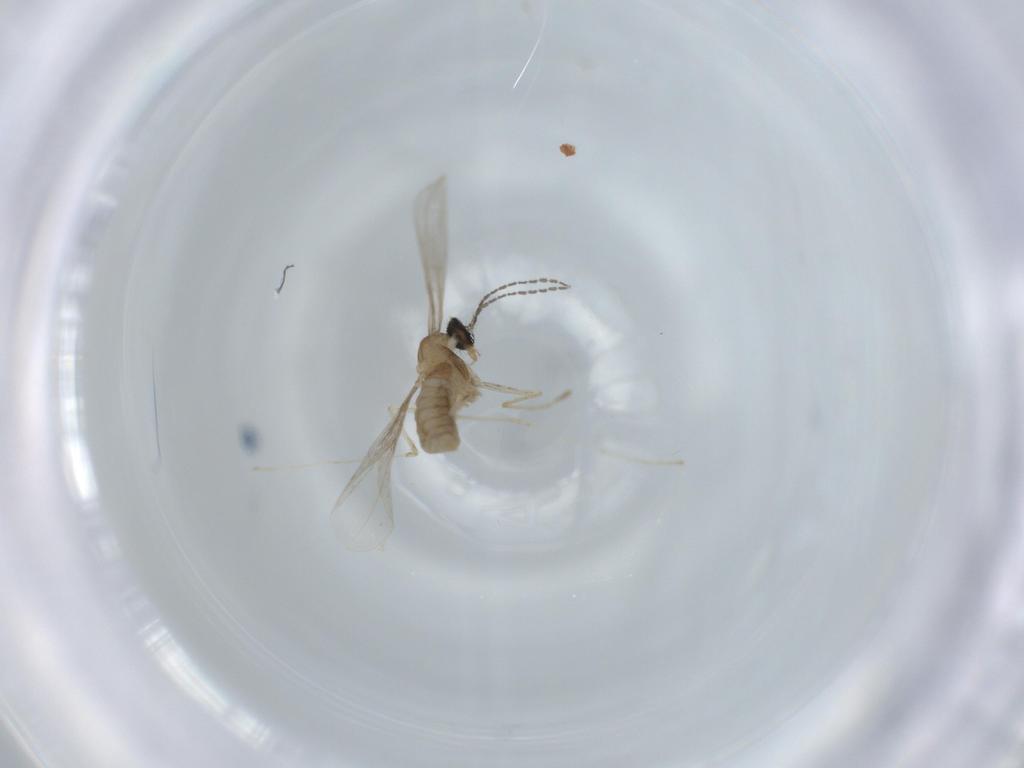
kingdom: Animalia
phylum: Arthropoda
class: Insecta
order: Diptera
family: Cecidomyiidae
